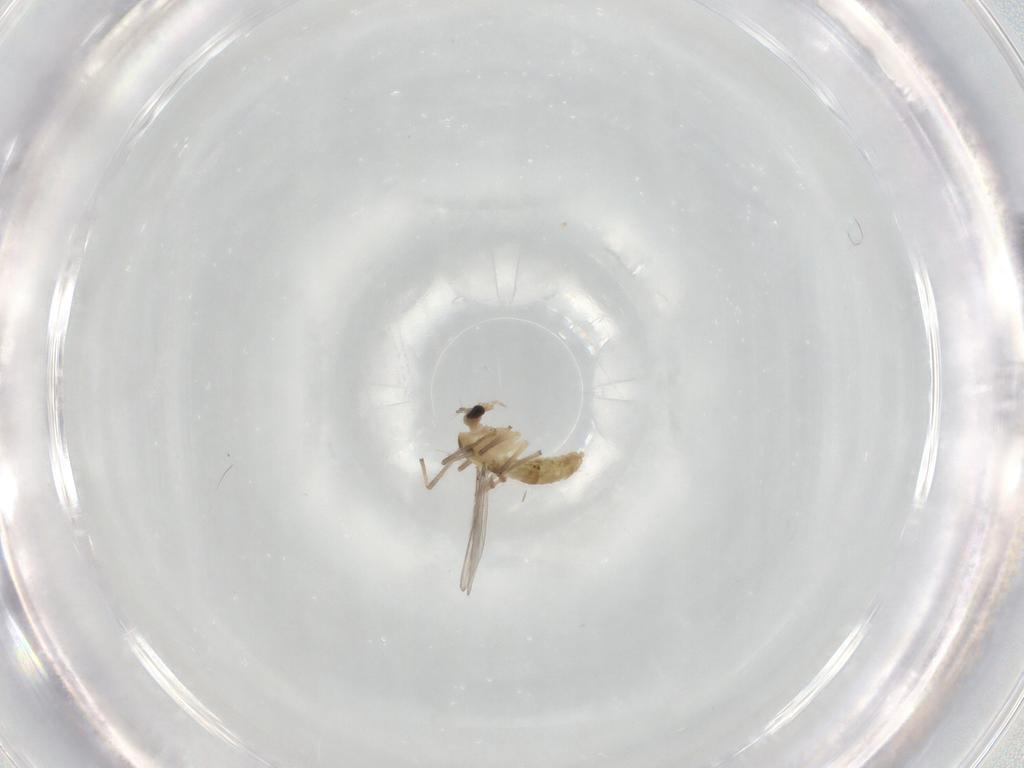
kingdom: Animalia
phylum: Arthropoda
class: Insecta
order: Diptera
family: Chironomidae
